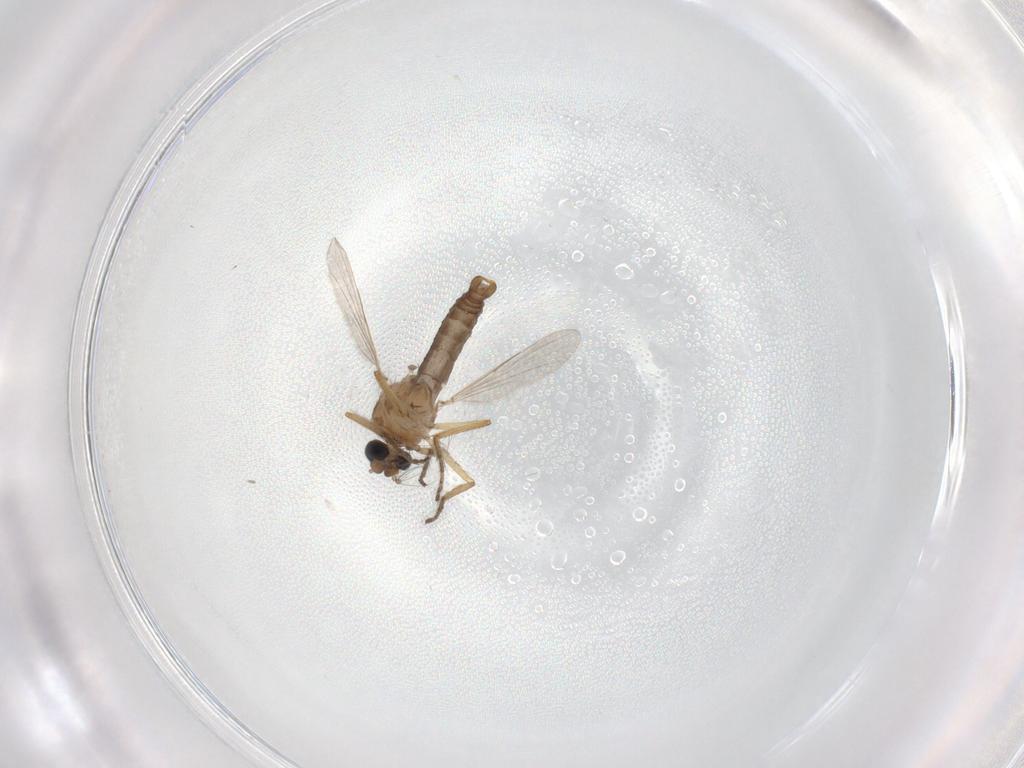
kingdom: Animalia
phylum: Arthropoda
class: Insecta
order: Diptera
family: Ceratopogonidae
